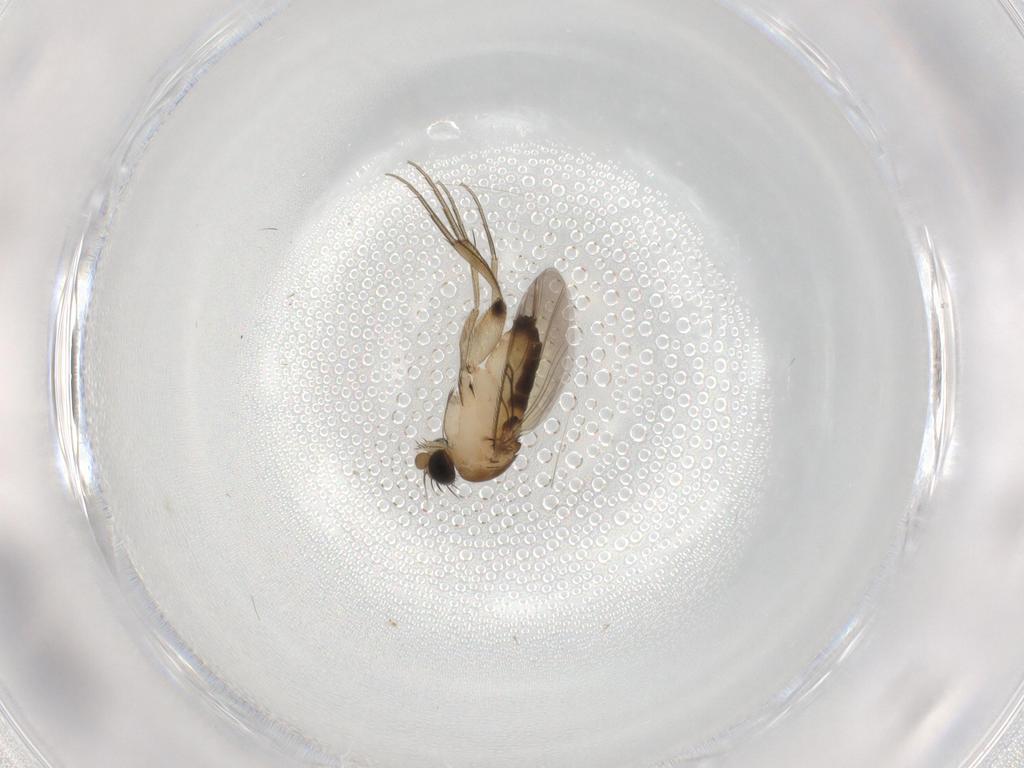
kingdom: Animalia
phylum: Arthropoda
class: Insecta
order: Diptera
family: Phoridae
